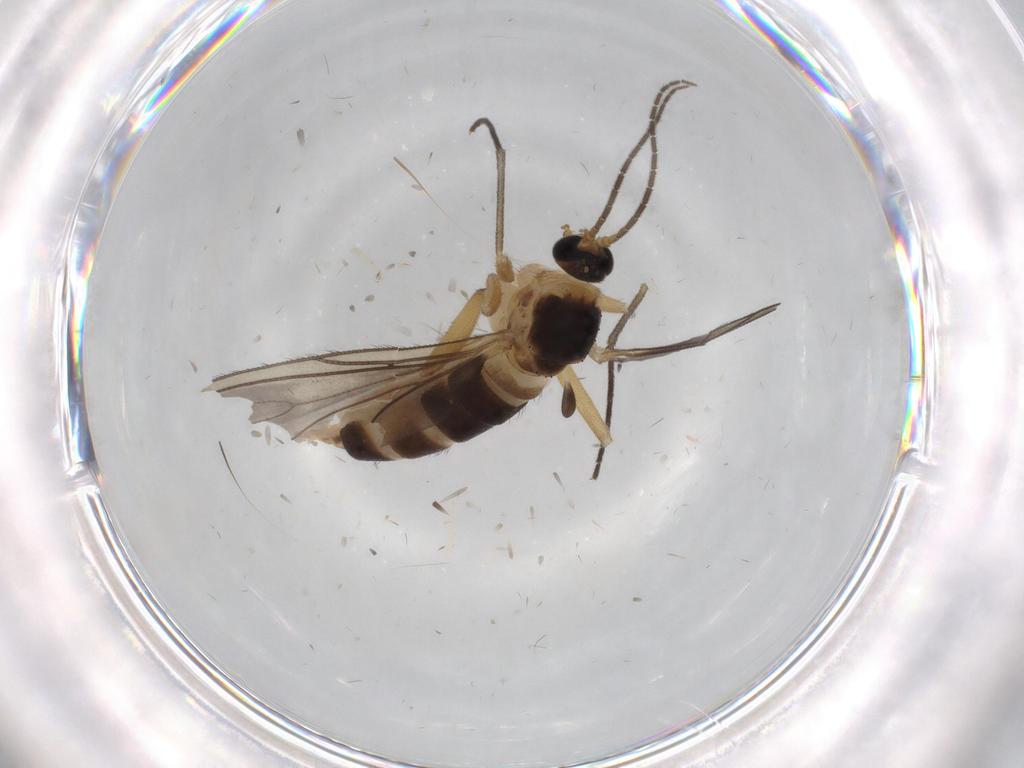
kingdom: Animalia
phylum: Arthropoda
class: Insecta
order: Diptera
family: Sciaridae
